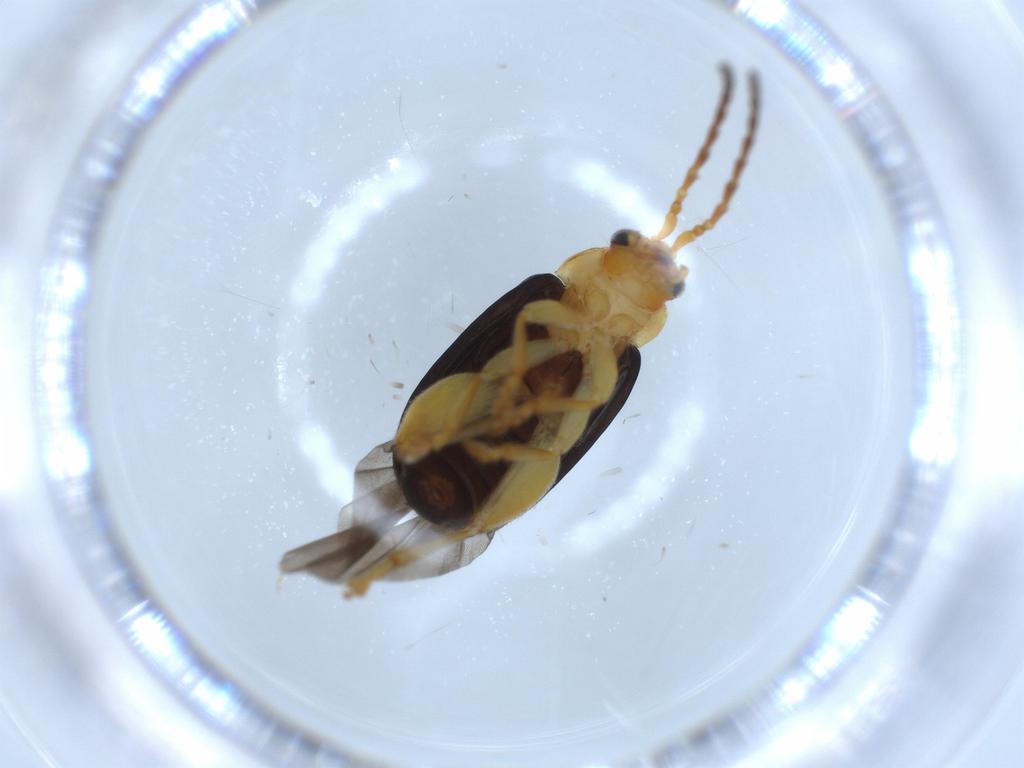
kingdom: Animalia
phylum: Arthropoda
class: Insecta
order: Coleoptera
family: Chrysomelidae
